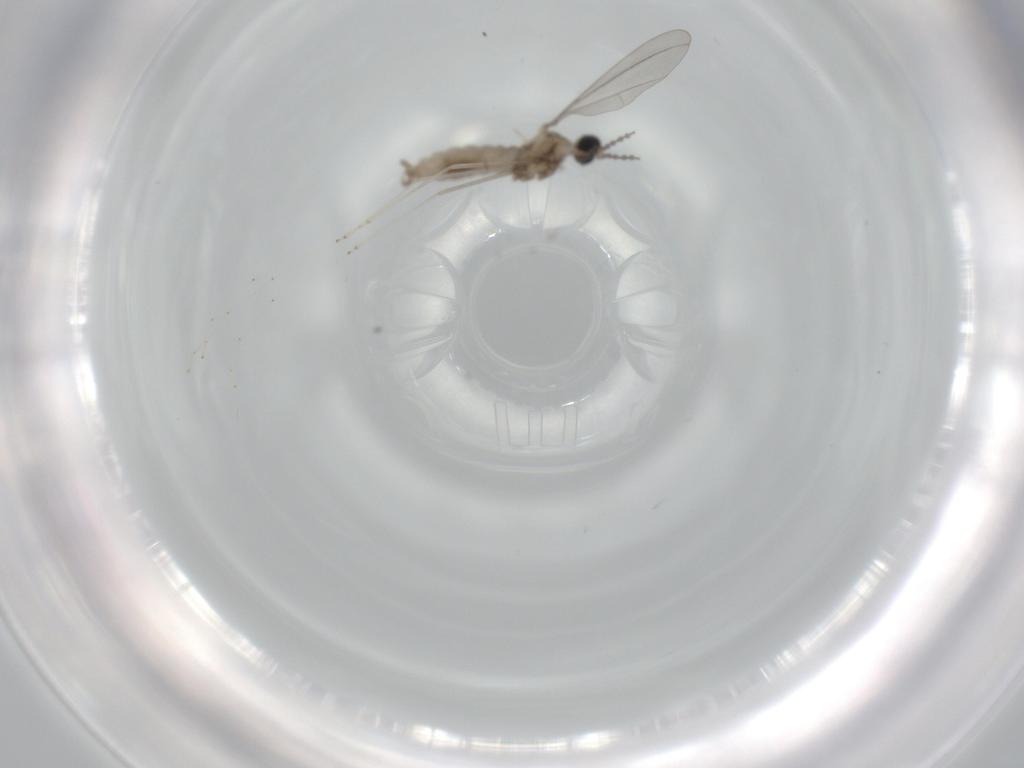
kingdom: Animalia
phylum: Arthropoda
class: Insecta
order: Diptera
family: Cecidomyiidae
